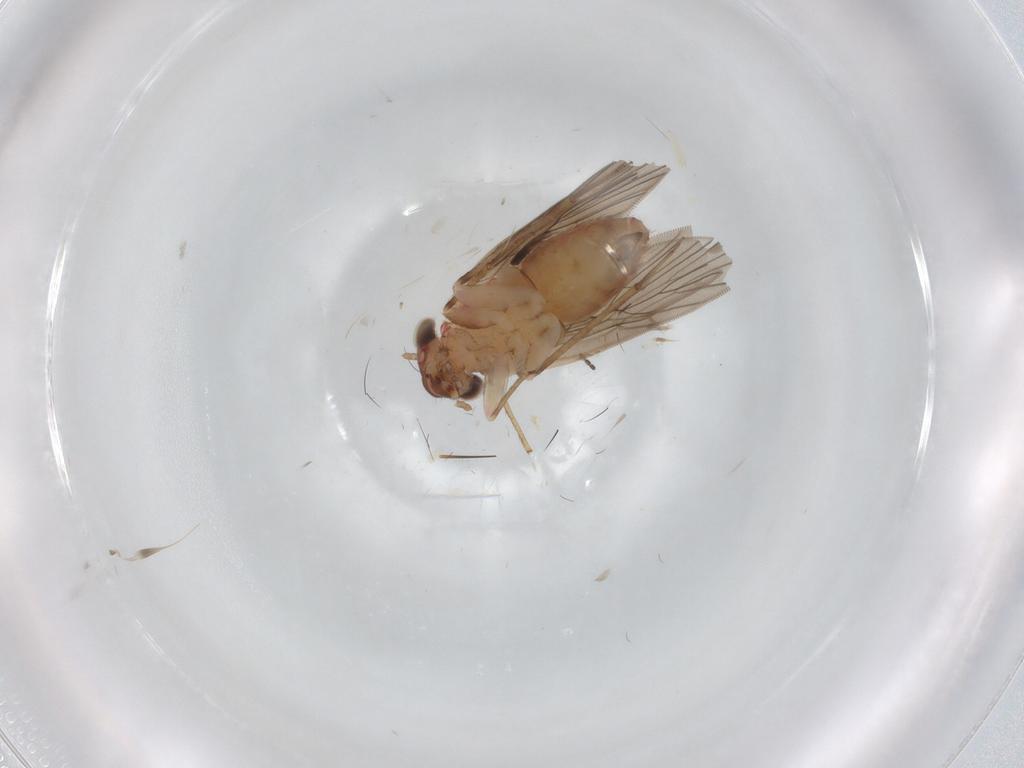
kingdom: Animalia
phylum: Arthropoda
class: Insecta
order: Psocodea
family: Lepidopsocidae
